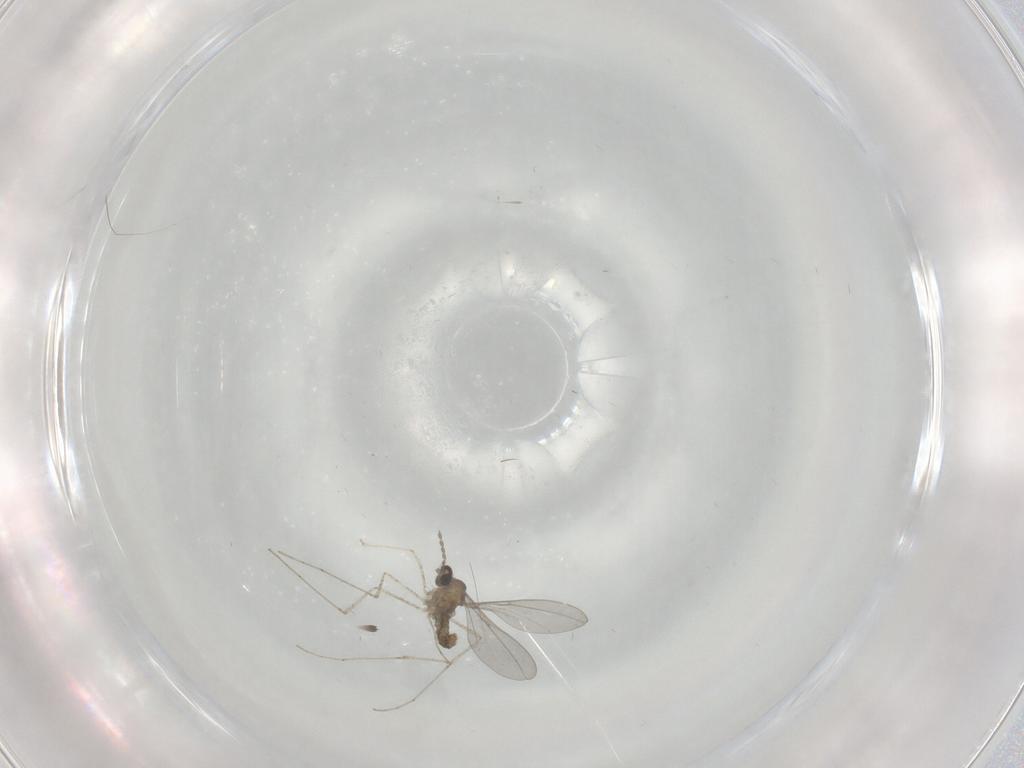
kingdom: Animalia
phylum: Arthropoda
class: Insecta
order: Diptera
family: Cecidomyiidae
